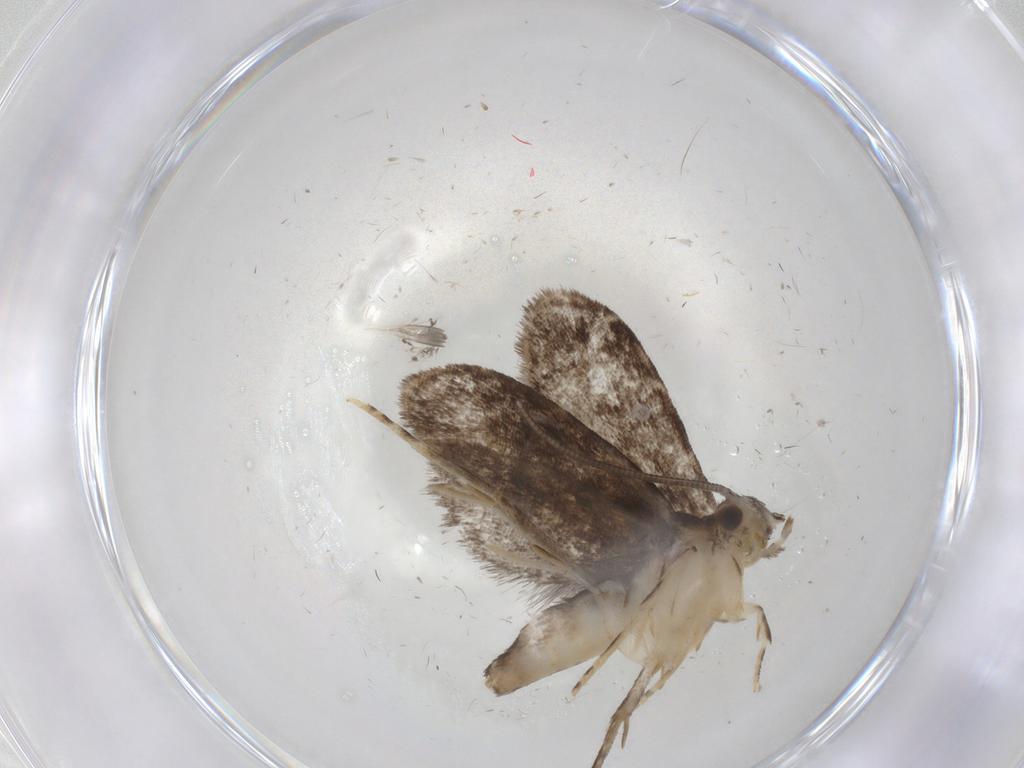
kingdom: Animalia
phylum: Arthropoda
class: Insecta
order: Lepidoptera
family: Dryadaulidae
